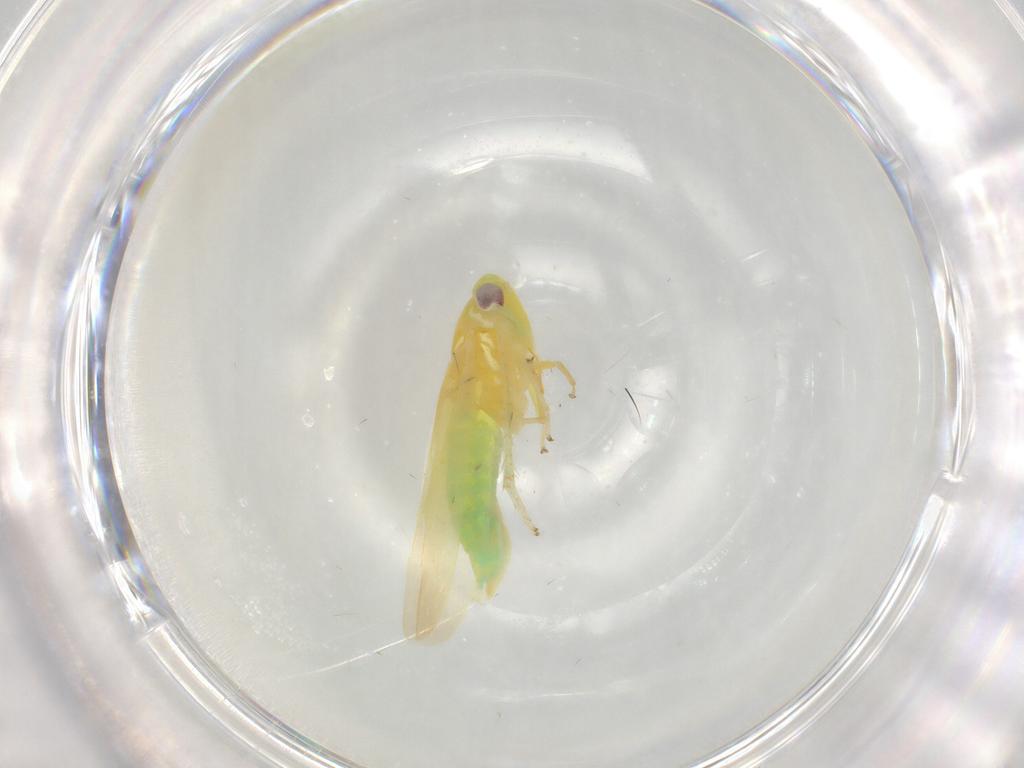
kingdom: Animalia
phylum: Arthropoda
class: Insecta
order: Hemiptera
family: Cicadellidae
